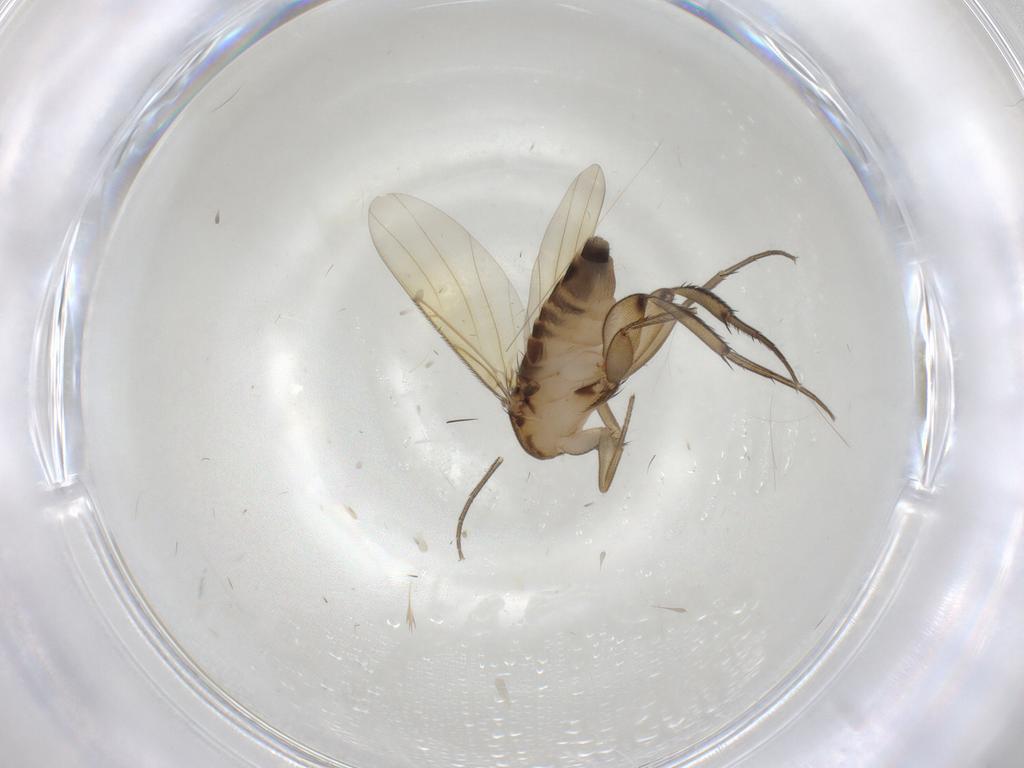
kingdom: Animalia
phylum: Arthropoda
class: Insecta
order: Diptera
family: Phoridae
